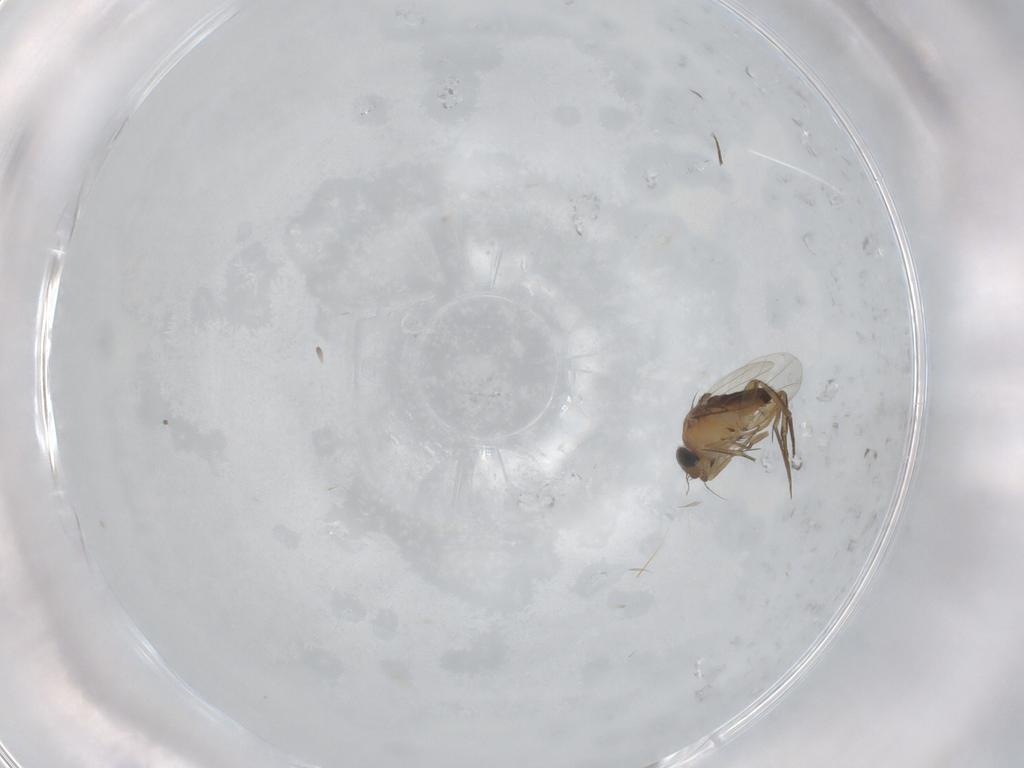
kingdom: Animalia
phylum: Arthropoda
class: Insecta
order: Diptera
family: Phoridae
